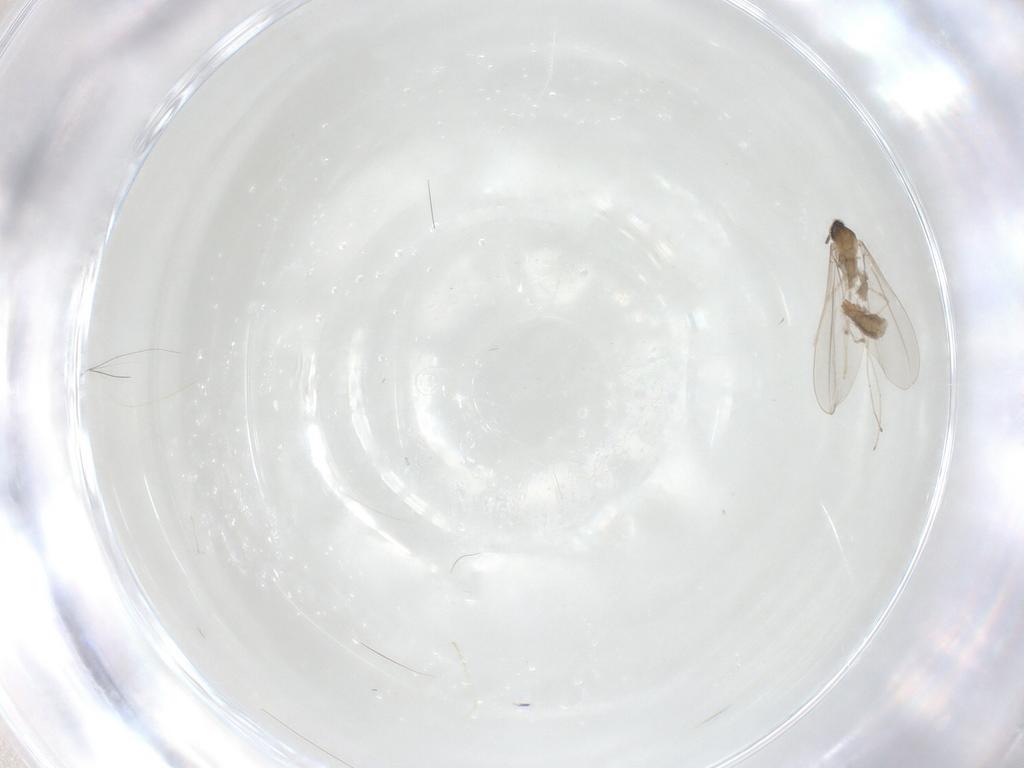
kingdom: Animalia
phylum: Arthropoda
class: Insecta
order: Diptera
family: Ceratopogonidae
